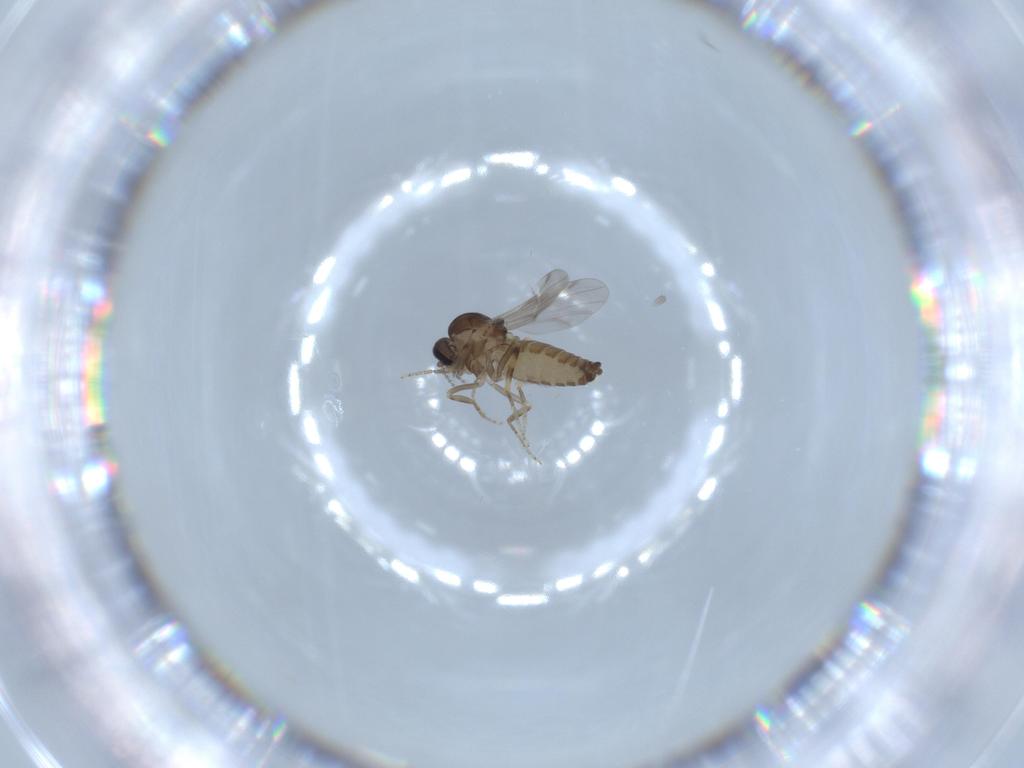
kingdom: Animalia
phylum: Arthropoda
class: Insecta
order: Diptera
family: Ceratopogonidae
